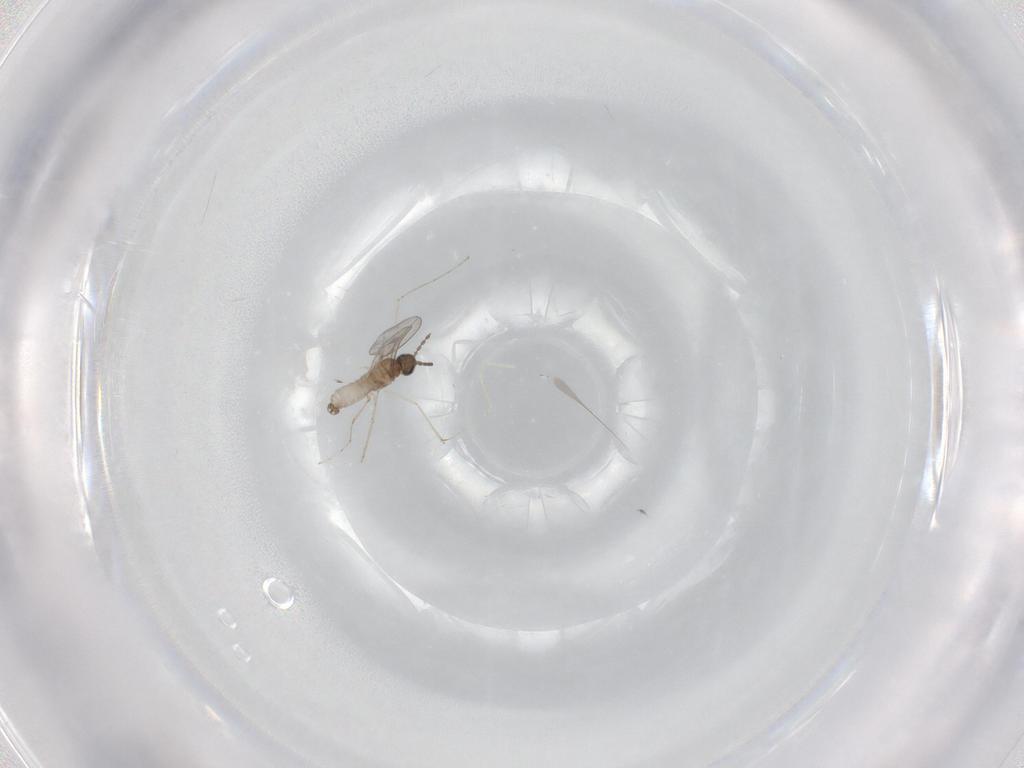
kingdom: Animalia
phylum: Arthropoda
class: Insecta
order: Diptera
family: Cecidomyiidae
